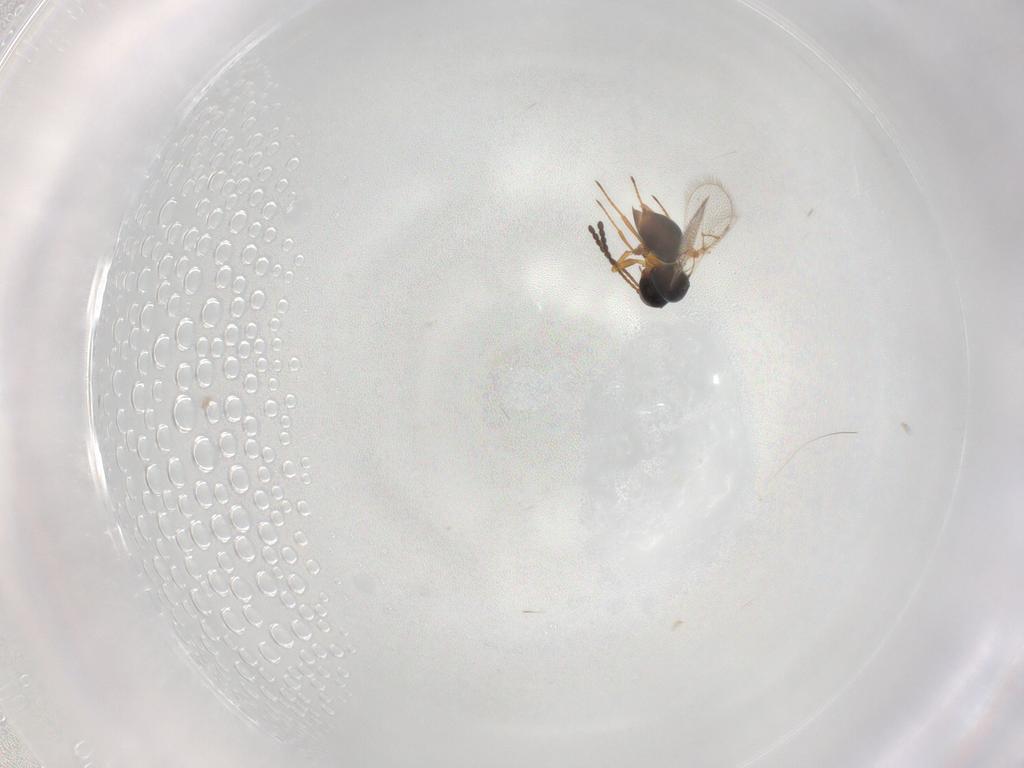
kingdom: Animalia
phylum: Arthropoda
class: Insecta
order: Hymenoptera
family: Figitidae
